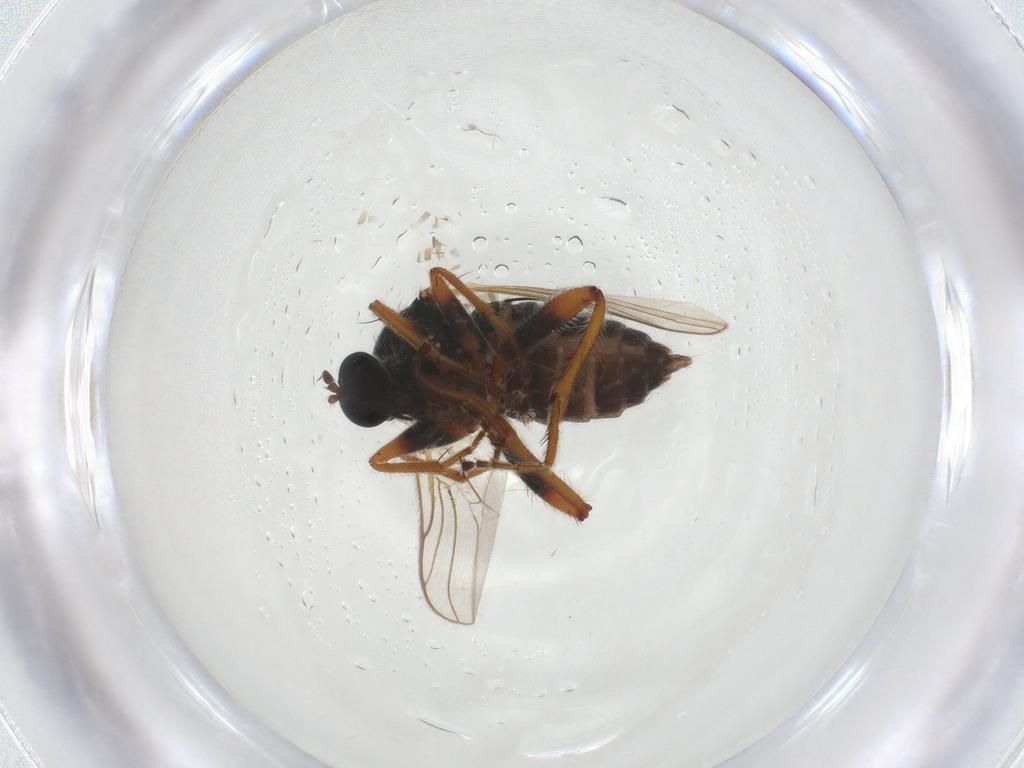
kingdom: Animalia
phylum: Arthropoda
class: Insecta
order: Diptera
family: Hybotidae
